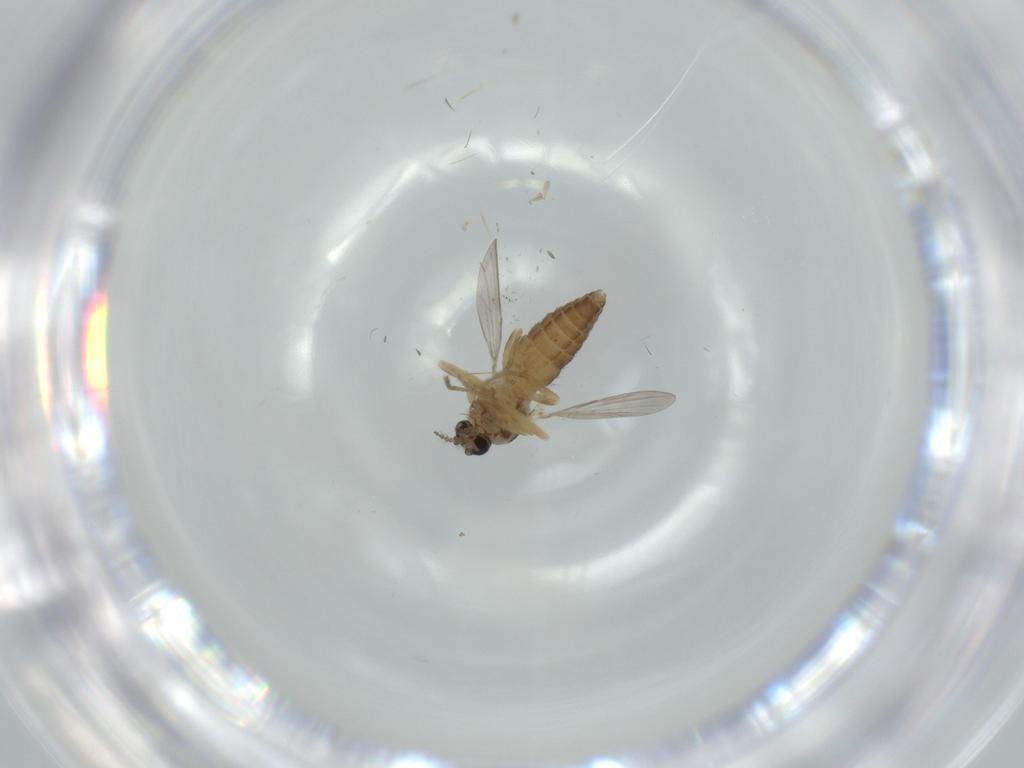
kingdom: Animalia
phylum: Arthropoda
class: Insecta
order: Diptera
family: Ceratopogonidae
